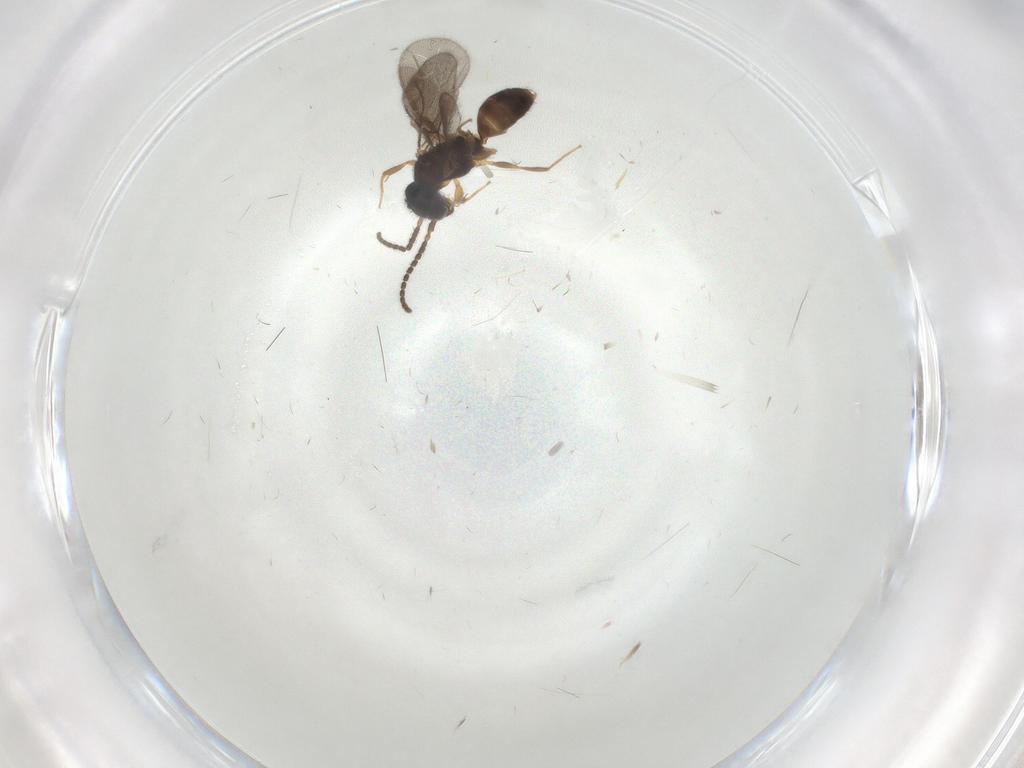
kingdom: Animalia
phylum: Arthropoda
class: Insecta
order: Hymenoptera
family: Bethylidae
